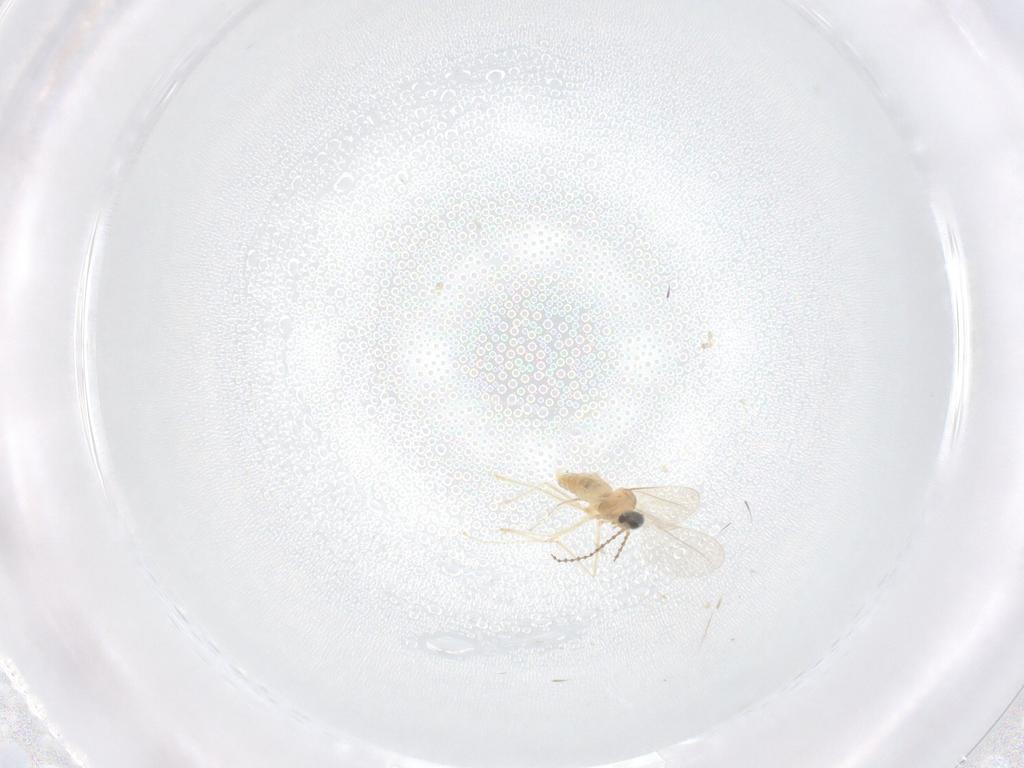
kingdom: Animalia
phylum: Arthropoda
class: Insecta
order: Diptera
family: Cecidomyiidae
